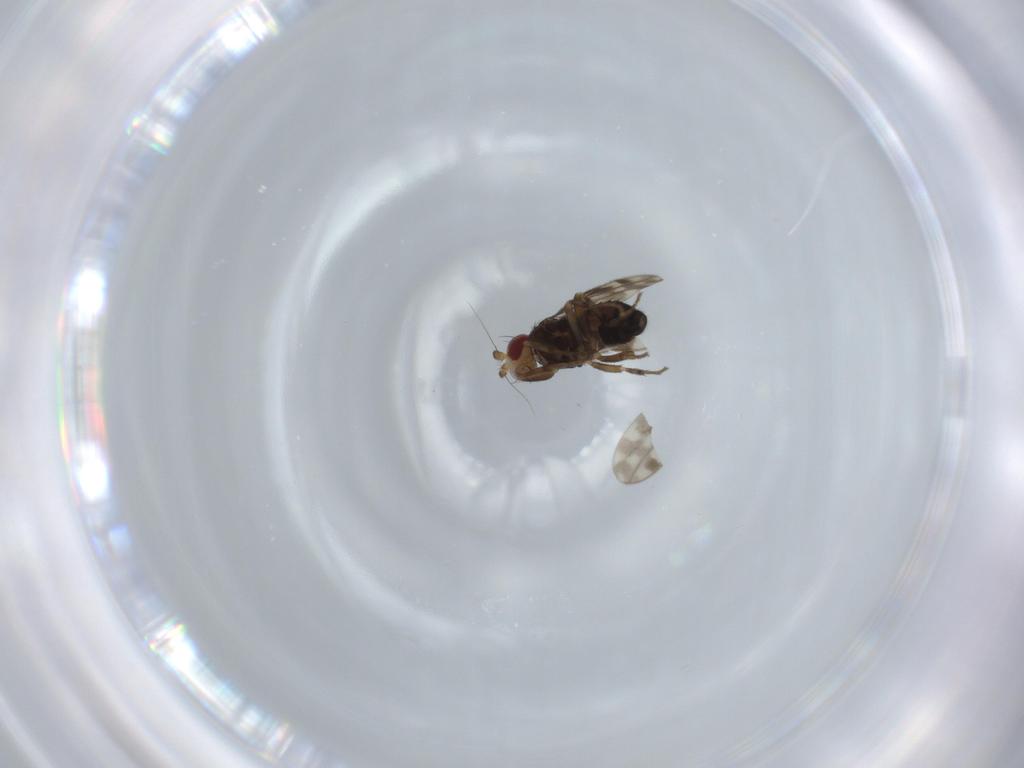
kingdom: Animalia
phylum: Arthropoda
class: Insecta
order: Diptera
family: Sphaeroceridae
